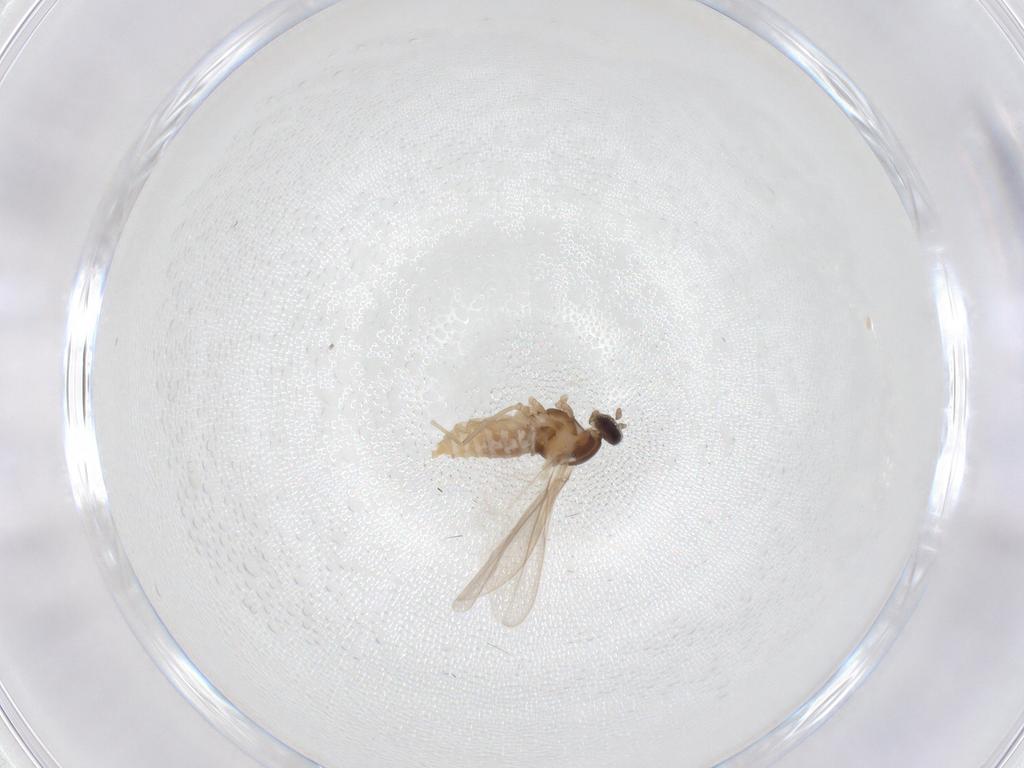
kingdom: Animalia
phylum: Arthropoda
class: Insecta
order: Diptera
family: Cecidomyiidae
